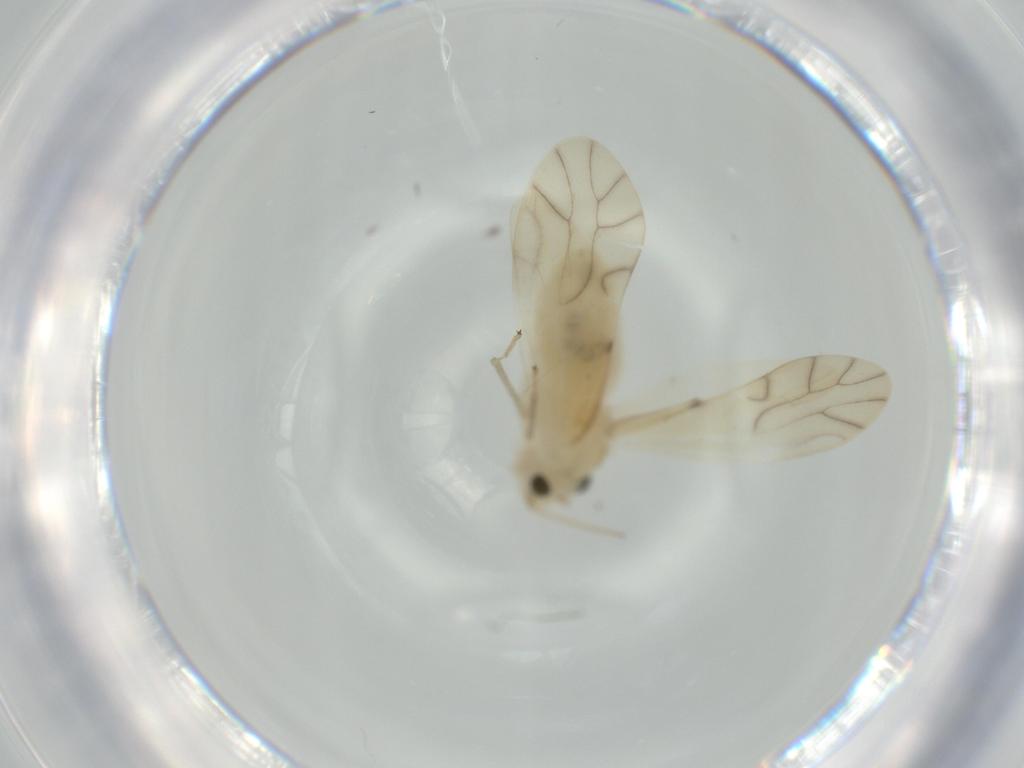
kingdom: Animalia
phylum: Arthropoda
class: Insecta
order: Psocodea
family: Caeciliusidae
